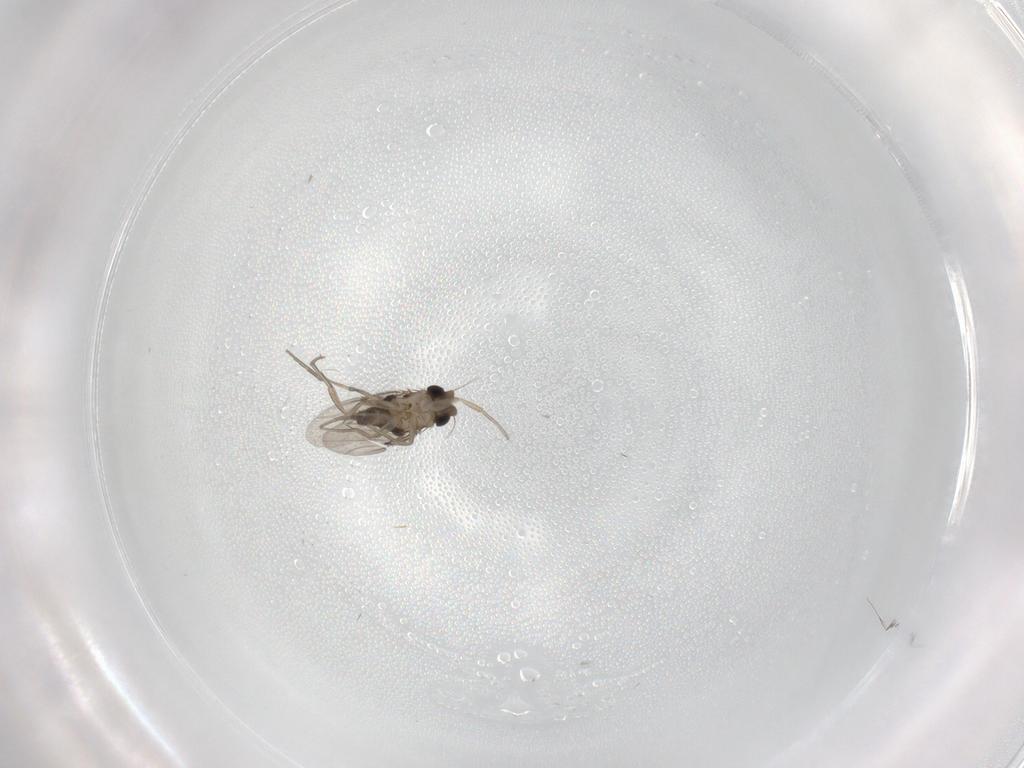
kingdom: Animalia
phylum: Arthropoda
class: Insecta
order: Diptera
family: Phoridae
